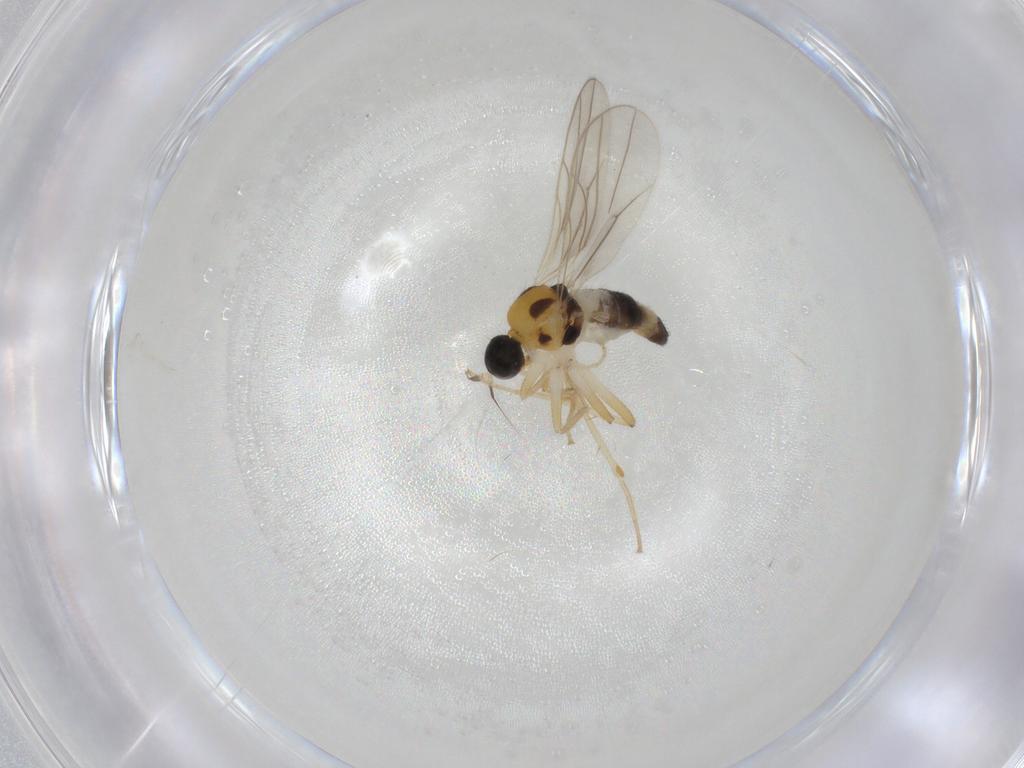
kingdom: Animalia
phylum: Arthropoda
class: Insecta
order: Diptera
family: Hybotidae
